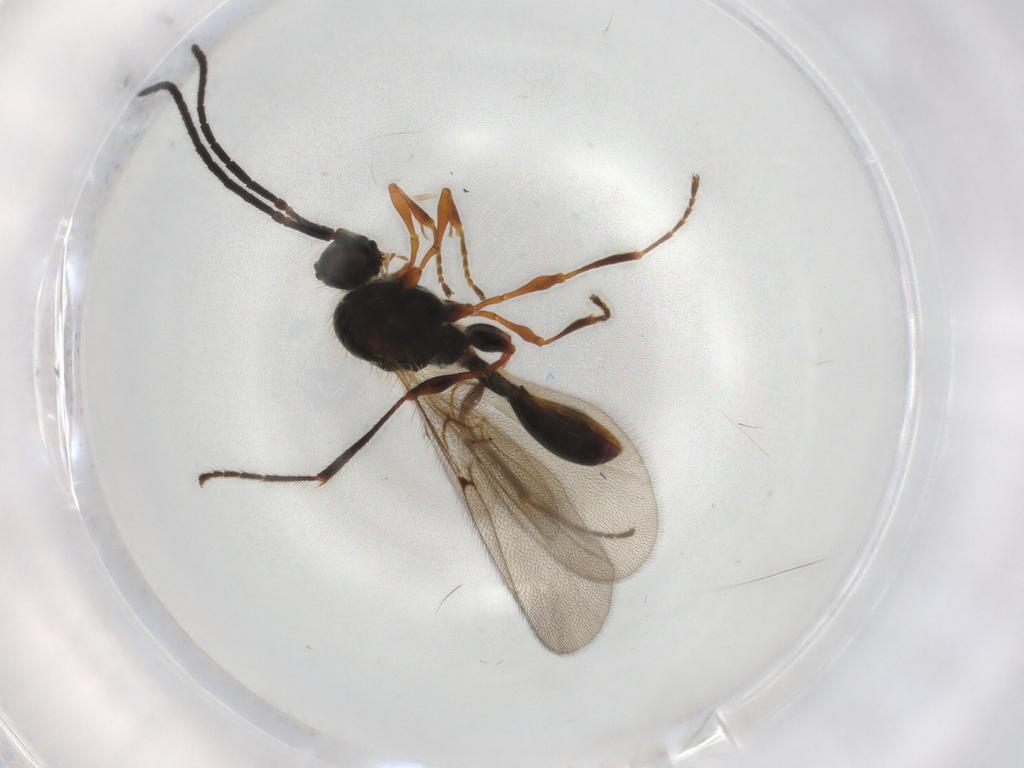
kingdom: Animalia
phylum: Arthropoda
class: Insecta
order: Hymenoptera
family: Diapriidae
